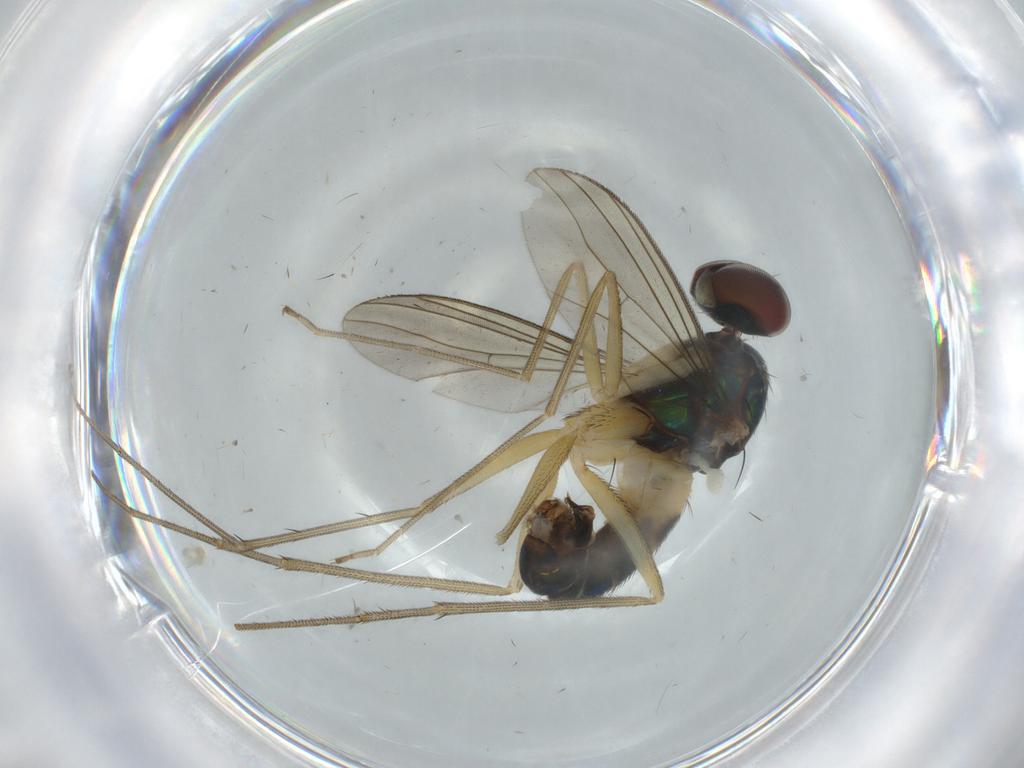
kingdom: Animalia
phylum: Arthropoda
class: Insecta
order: Diptera
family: Dolichopodidae
